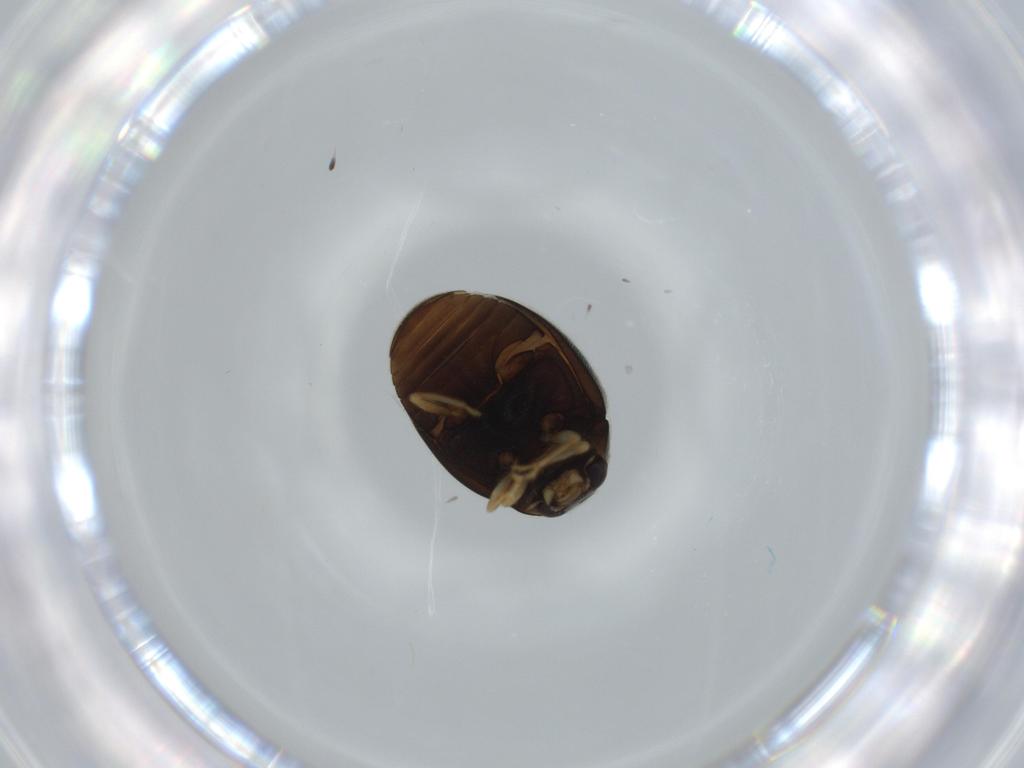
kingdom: Animalia
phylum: Arthropoda
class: Insecta
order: Coleoptera
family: Coccinellidae
